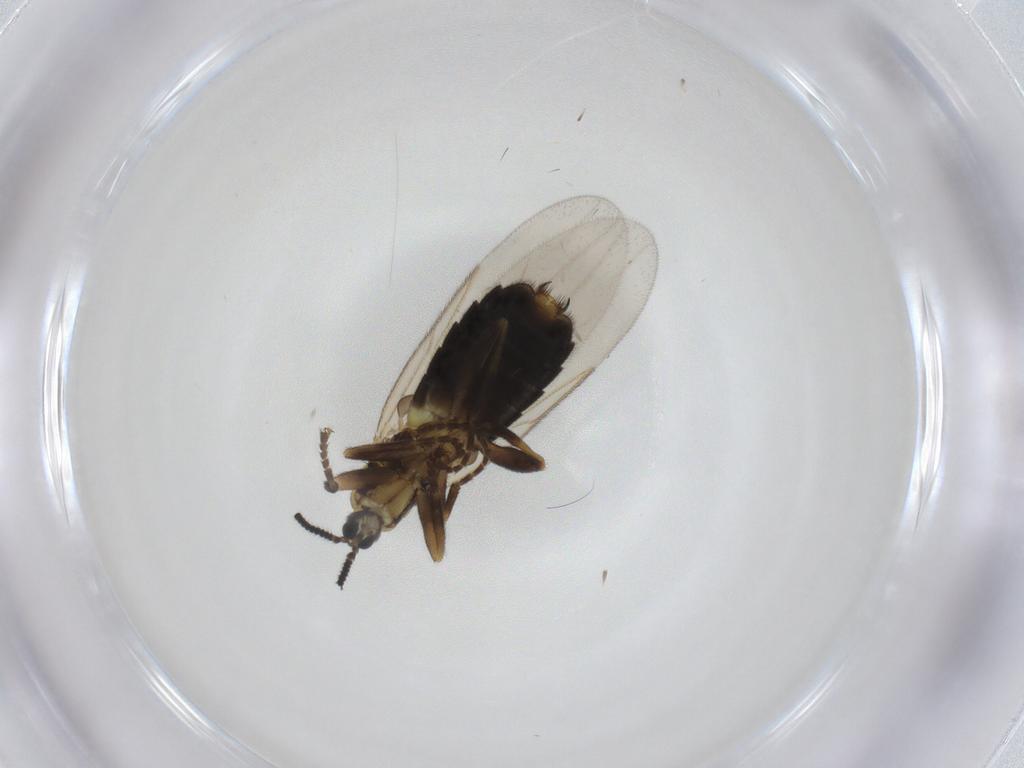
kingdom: Animalia
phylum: Arthropoda
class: Insecta
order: Diptera
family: Scatopsidae
